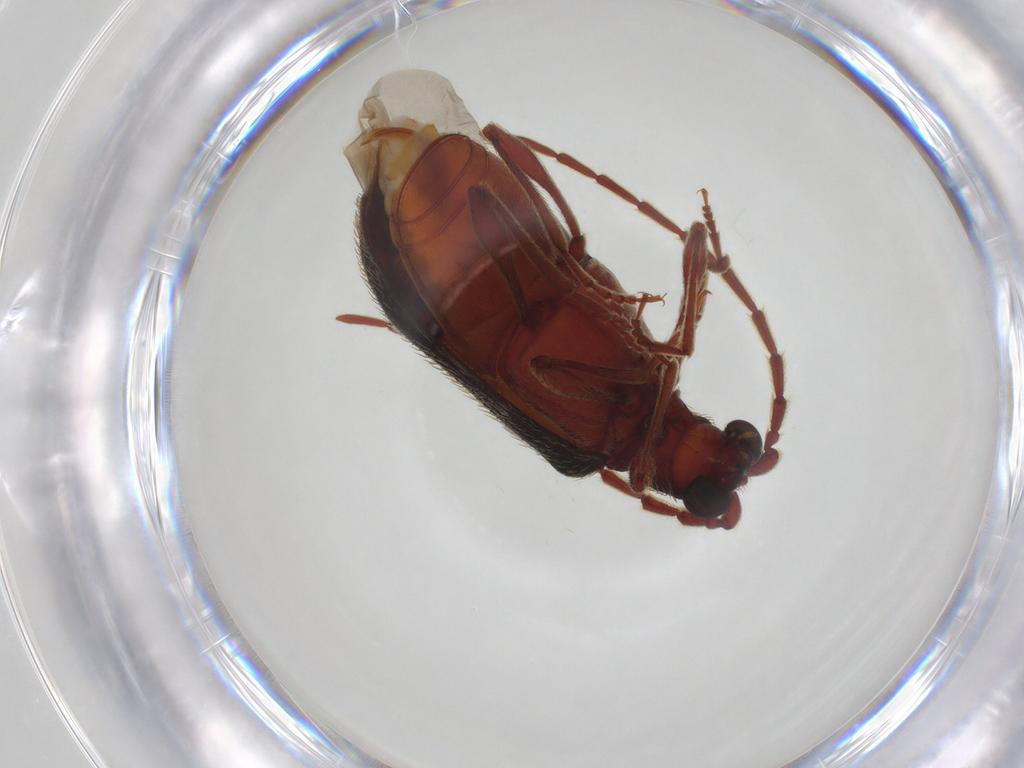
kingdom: Animalia
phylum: Arthropoda
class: Insecta
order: Coleoptera
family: Ptinidae
